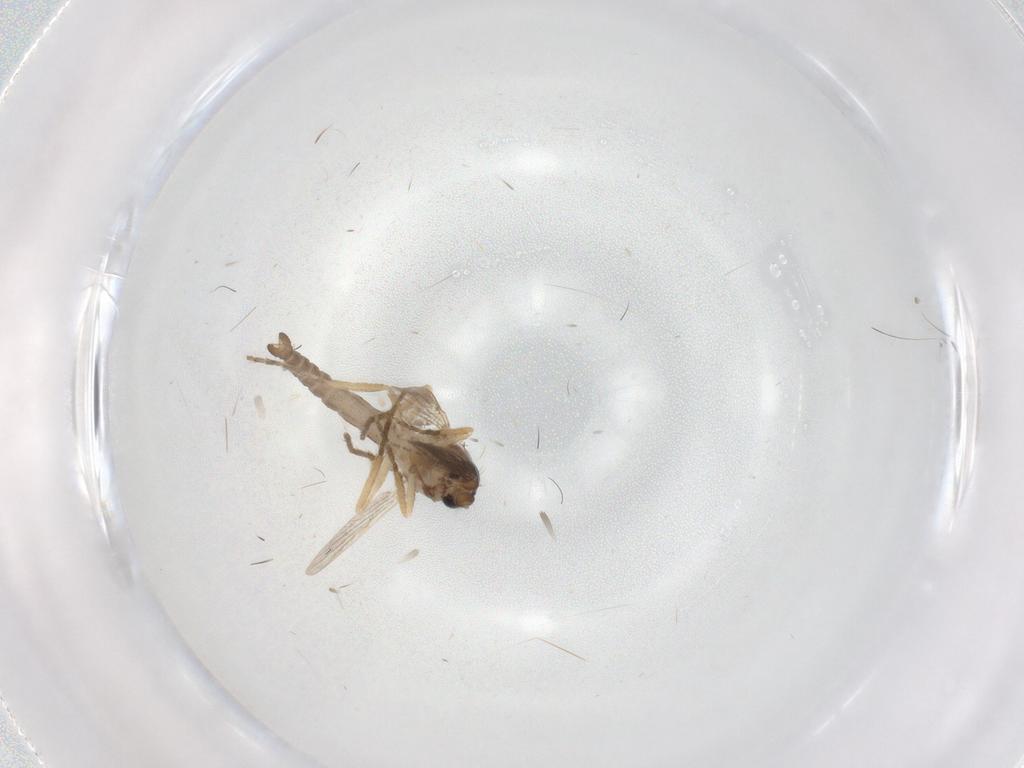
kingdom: Animalia
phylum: Arthropoda
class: Insecta
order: Diptera
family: Ceratopogonidae
